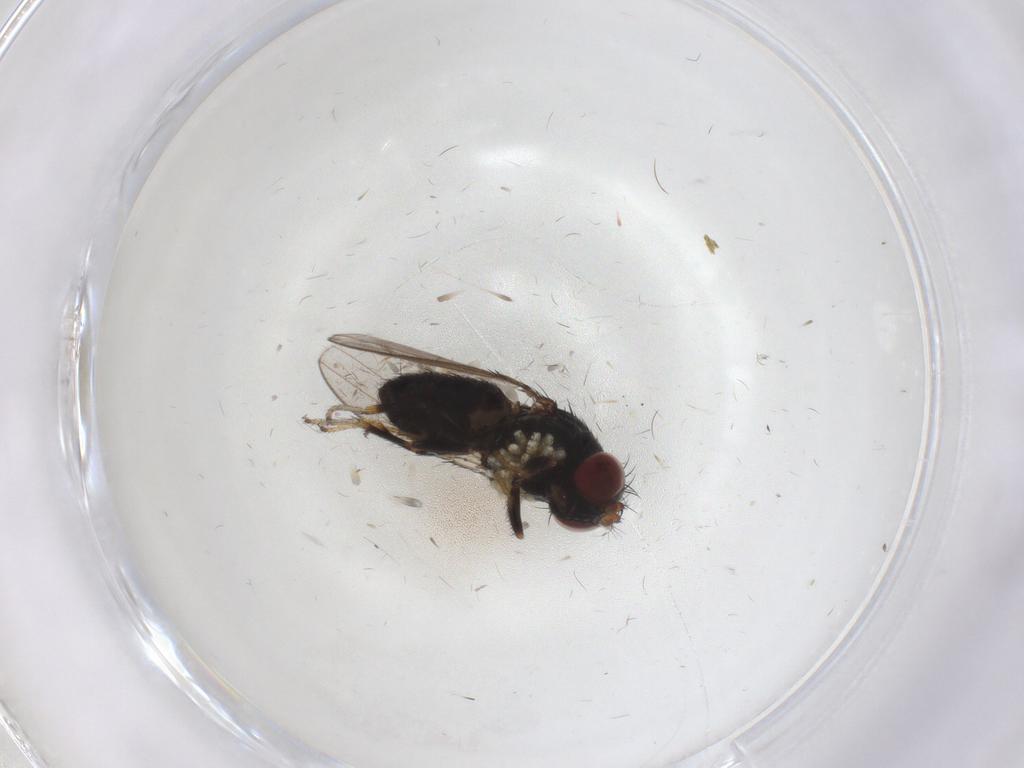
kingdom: Animalia
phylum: Arthropoda
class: Insecta
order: Diptera
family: Ephydridae
